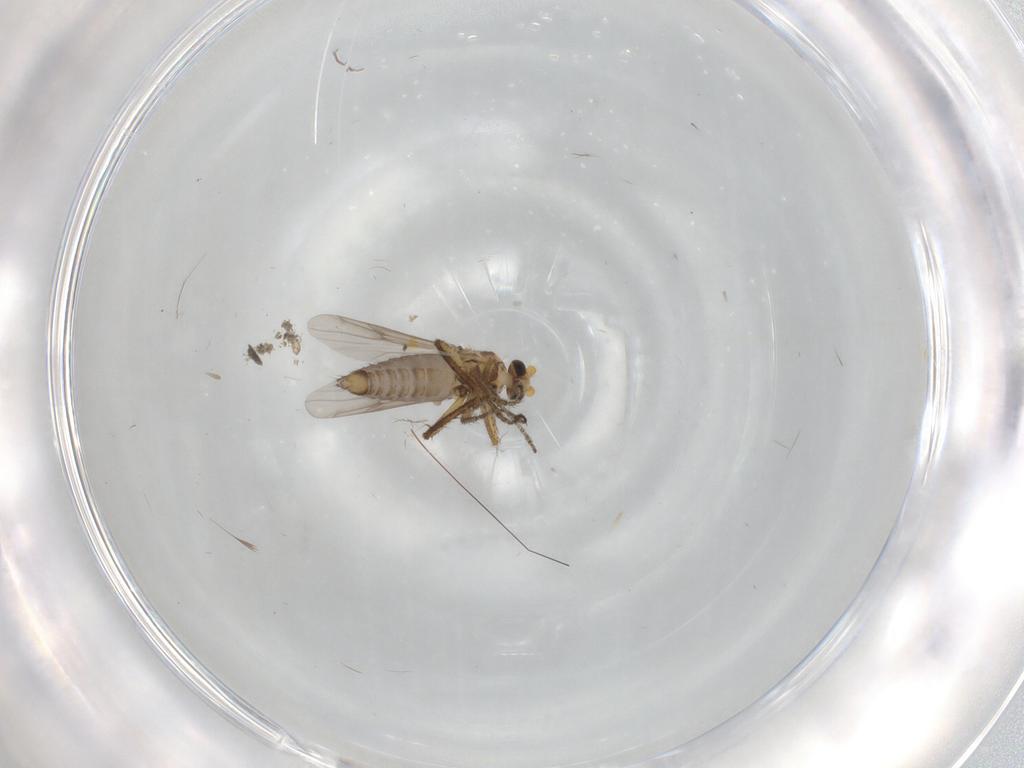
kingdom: Animalia
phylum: Arthropoda
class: Insecta
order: Diptera
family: Ceratopogonidae
